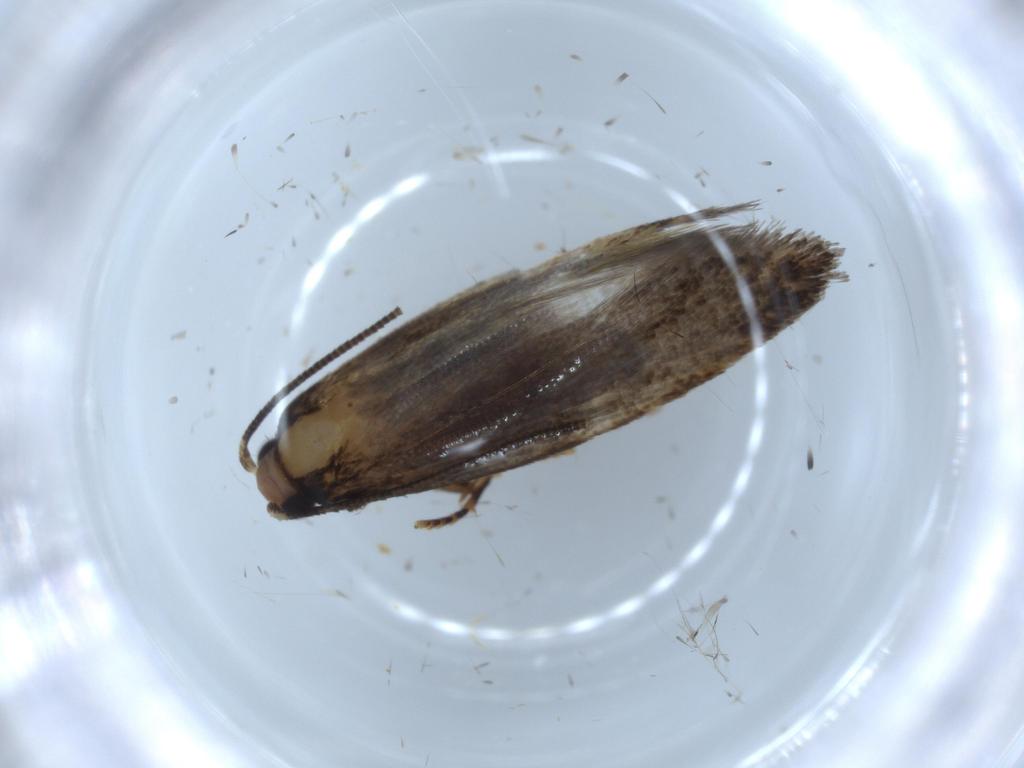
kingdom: Animalia
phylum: Arthropoda
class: Insecta
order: Lepidoptera
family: Tineidae
